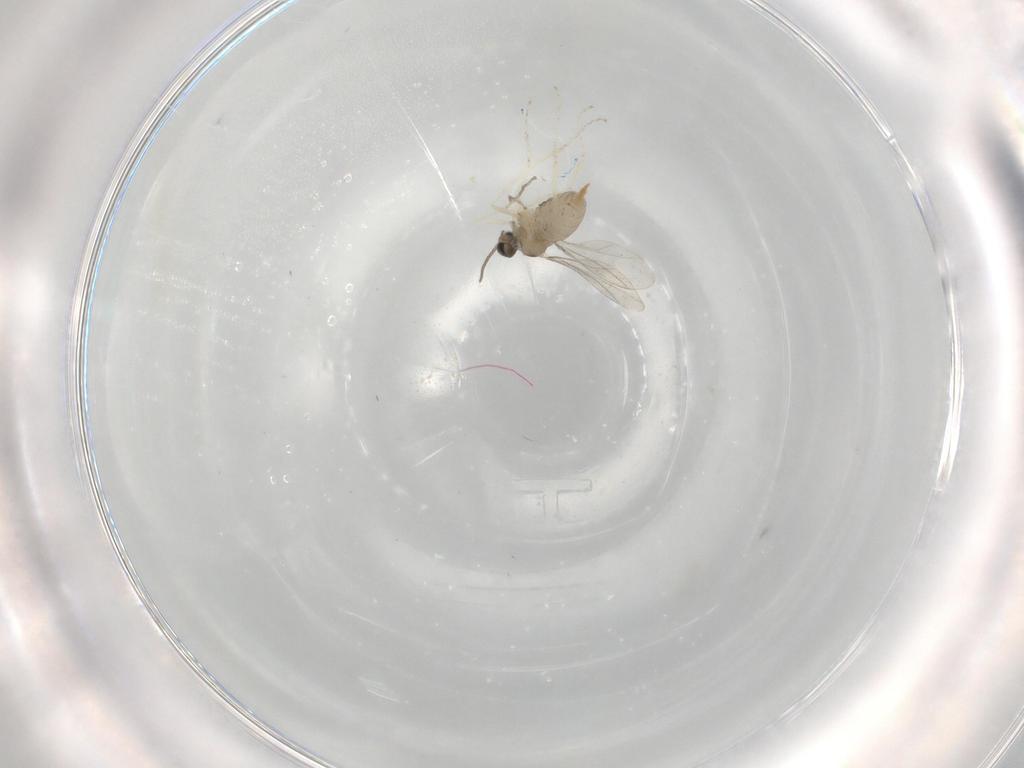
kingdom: Animalia
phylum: Arthropoda
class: Insecta
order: Diptera
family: Cecidomyiidae
